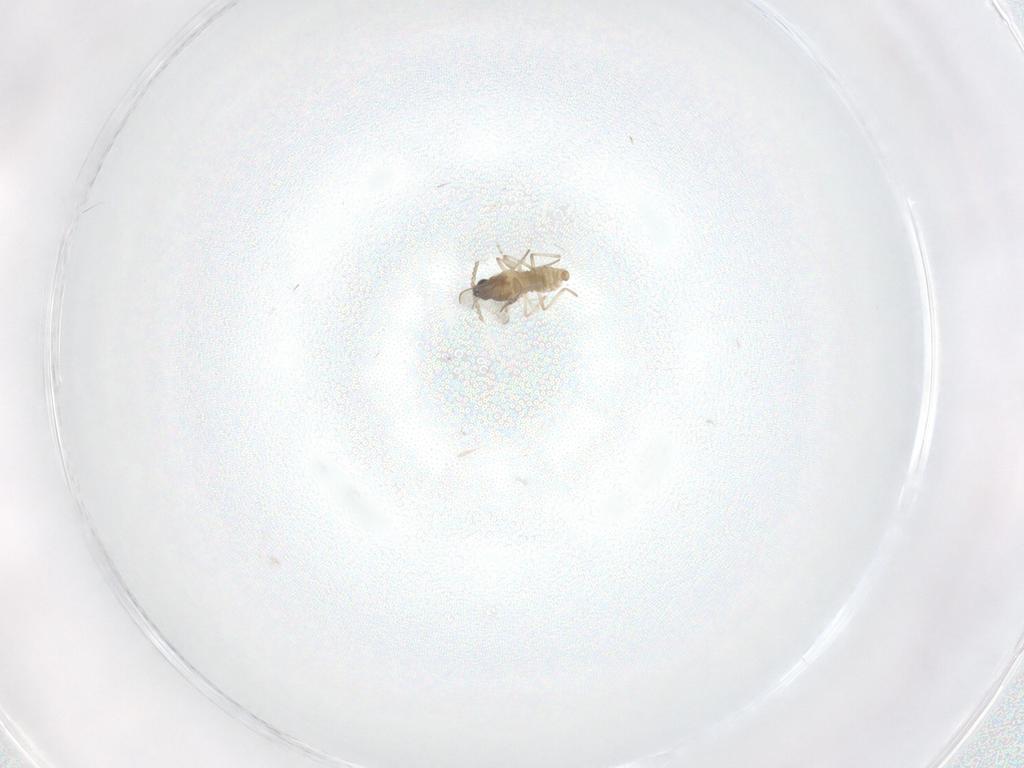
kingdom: Animalia
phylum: Arthropoda
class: Insecta
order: Diptera
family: Cecidomyiidae
